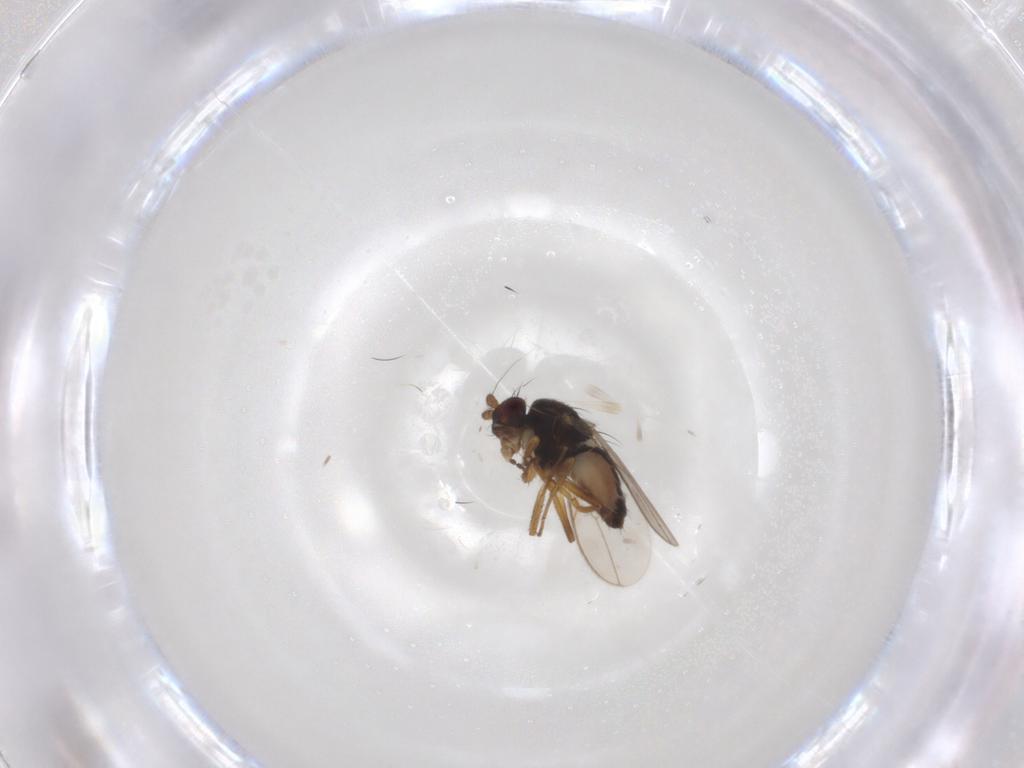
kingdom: Animalia
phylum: Arthropoda
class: Insecta
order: Diptera
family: Sphaeroceridae
